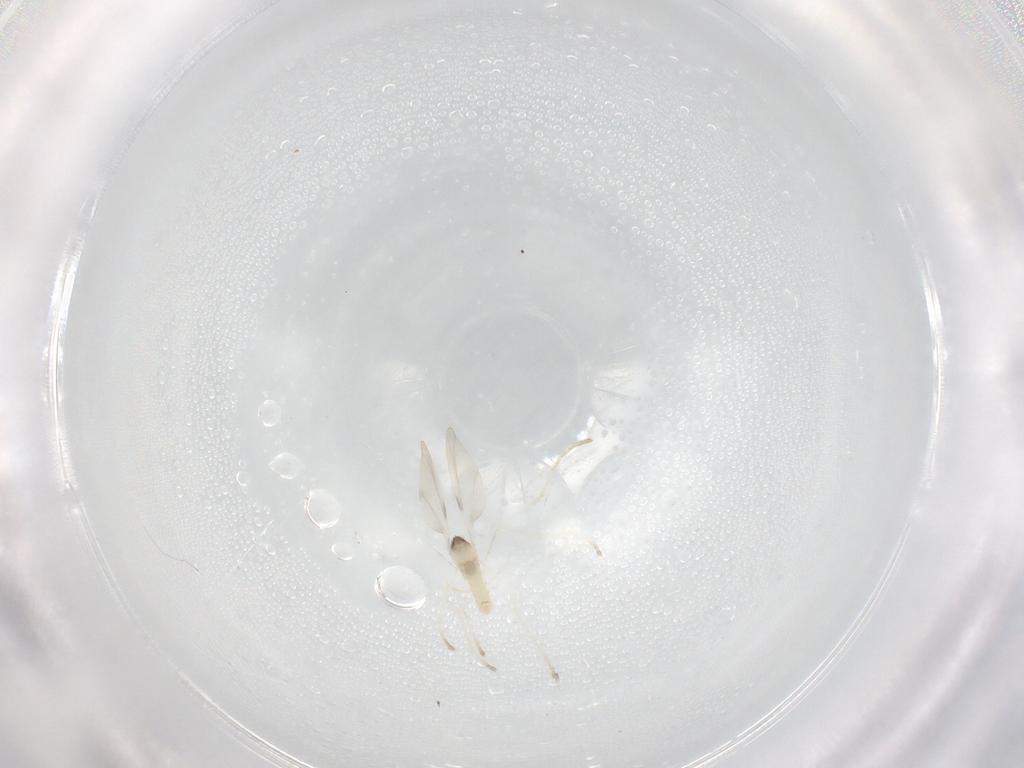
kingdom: Animalia
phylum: Arthropoda
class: Insecta
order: Diptera
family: Cecidomyiidae
